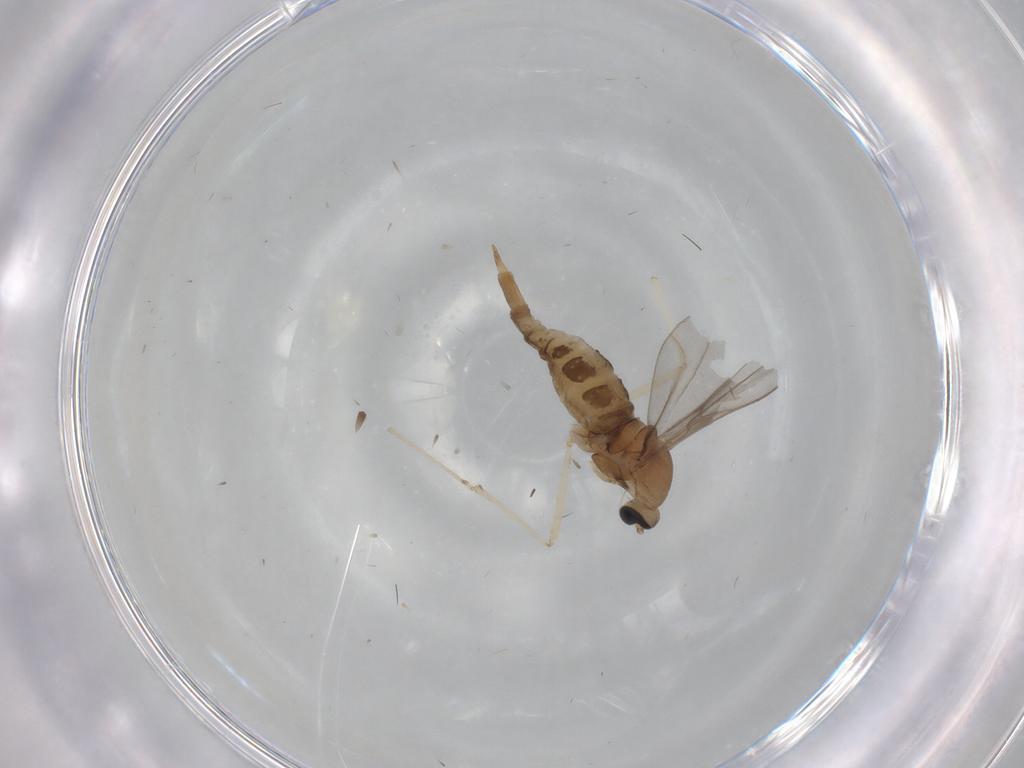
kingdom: Animalia
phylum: Arthropoda
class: Insecta
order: Diptera
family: Cecidomyiidae
